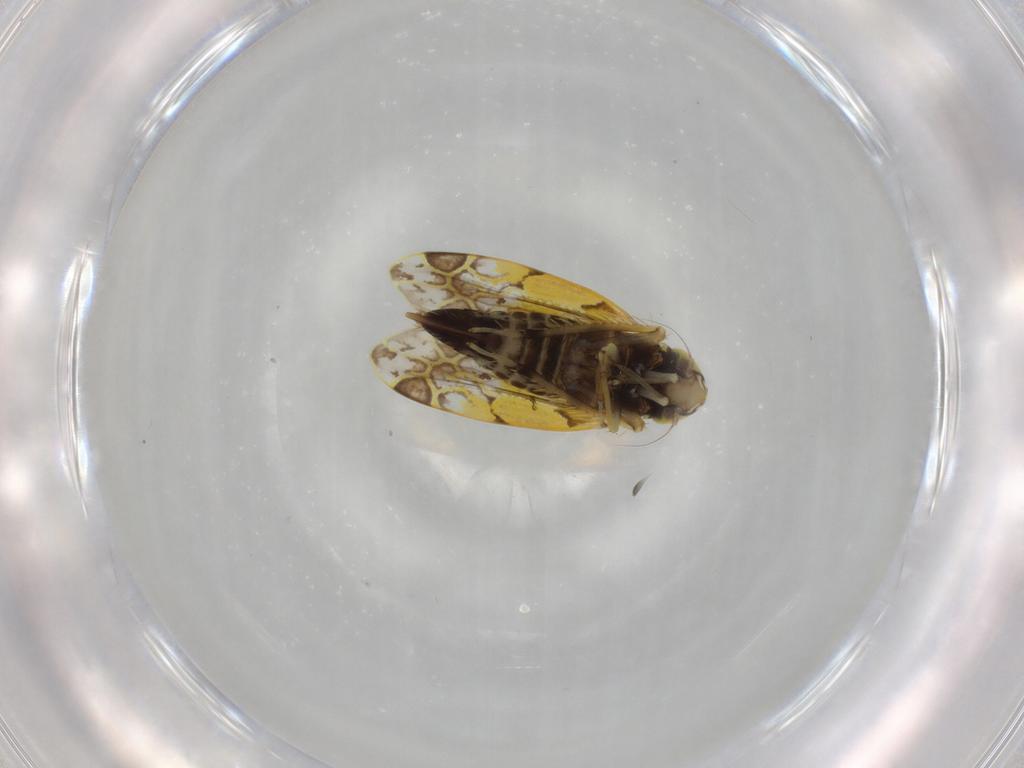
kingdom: Animalia
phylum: Arthropoda
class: Insecta
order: Hemiptera
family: Cicadellidae
